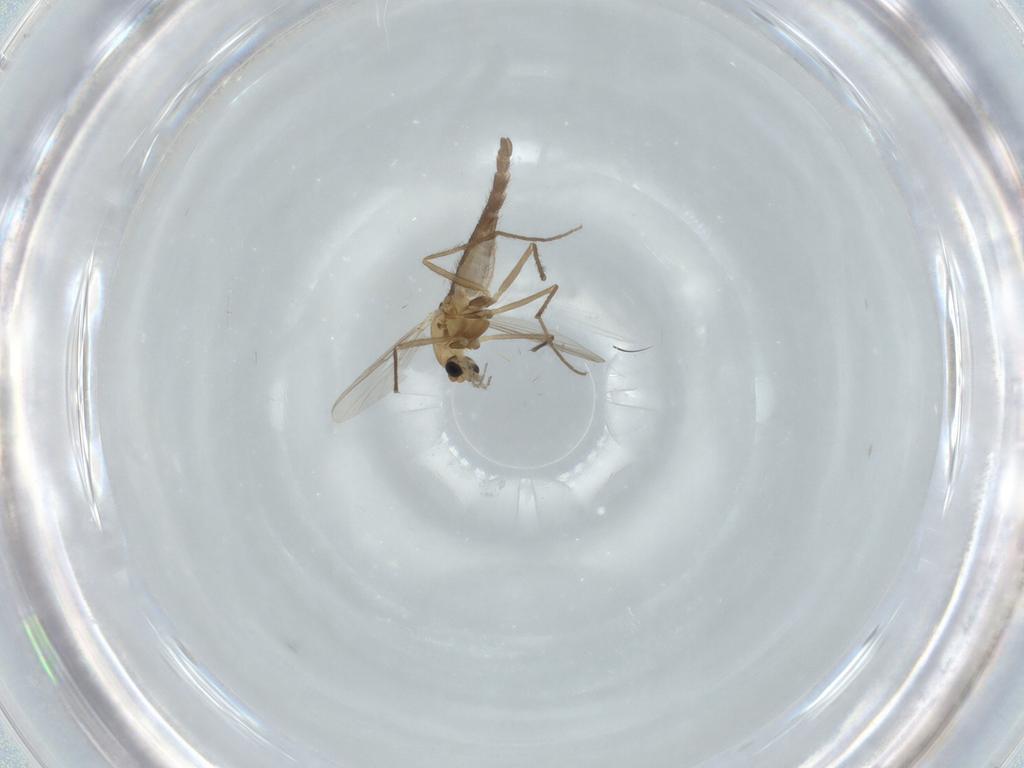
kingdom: Animalia
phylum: Arthropoda
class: Insecta
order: Diptera
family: Chironomidae
